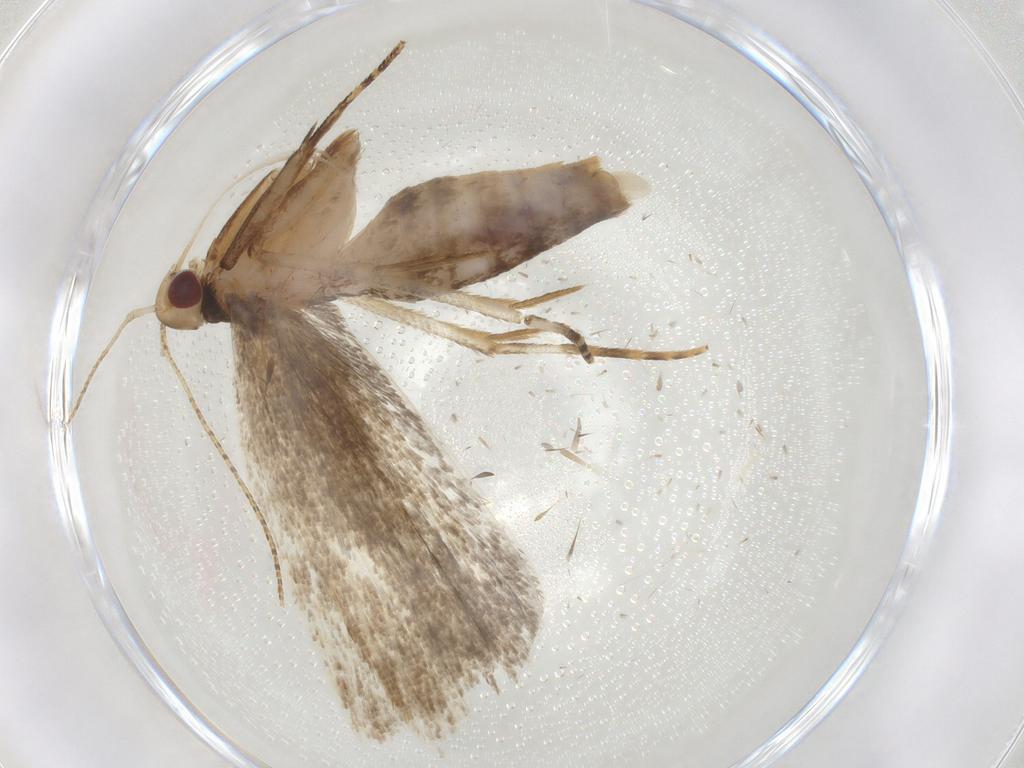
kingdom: Animalia
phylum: Arthropoda
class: Insecta
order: Lepidoptera
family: Gelechiidae
